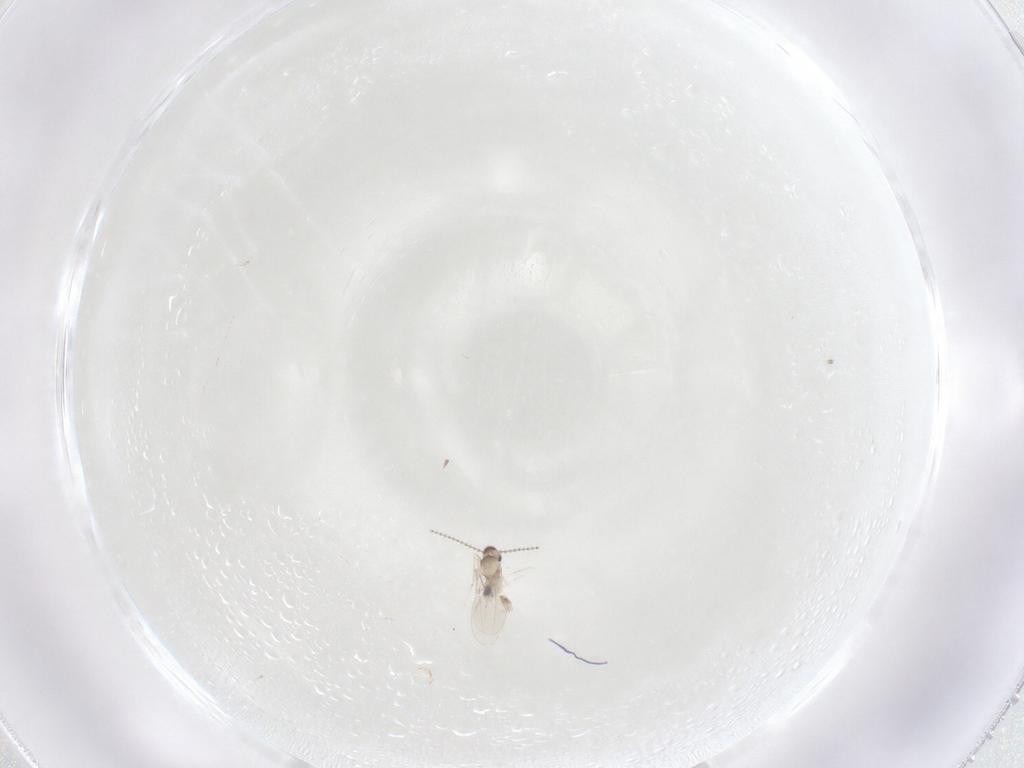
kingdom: Animalia
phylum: Arthropoda
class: Insecta
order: Diptera
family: Cecidomyiidae
